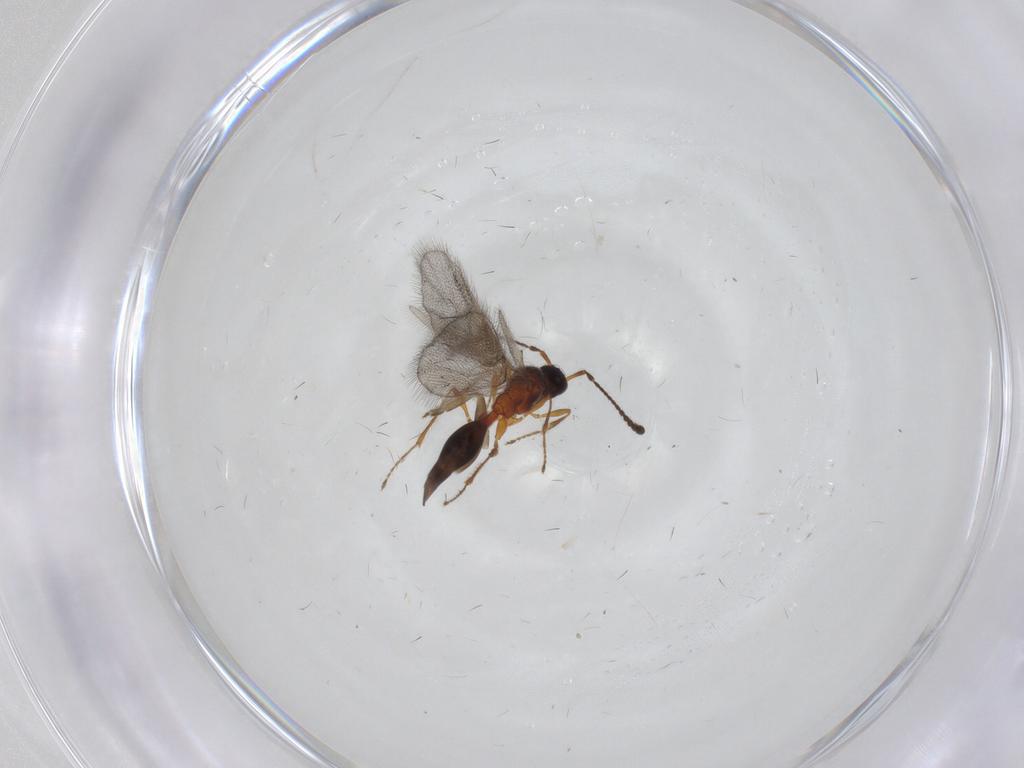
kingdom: Animalia
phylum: Arthropoda
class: Insecta
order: Hymenoptera
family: Diapriidae
